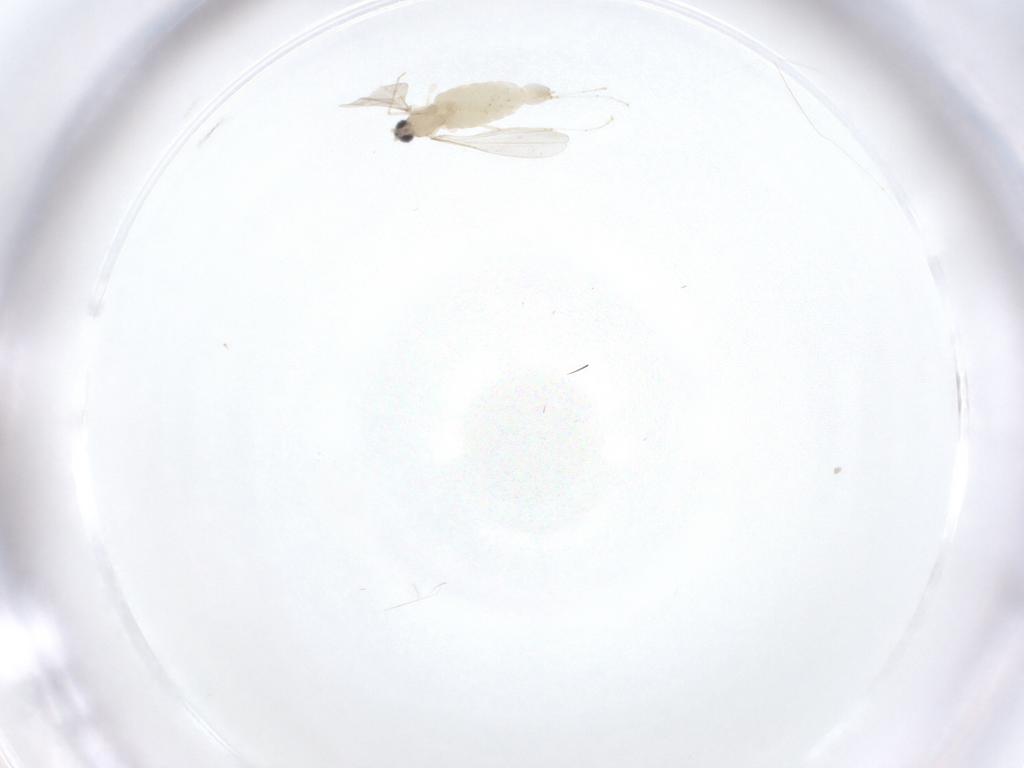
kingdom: Animalia
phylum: Arthropoda
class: Insecta
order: Diptera
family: Cecidomyiidae
